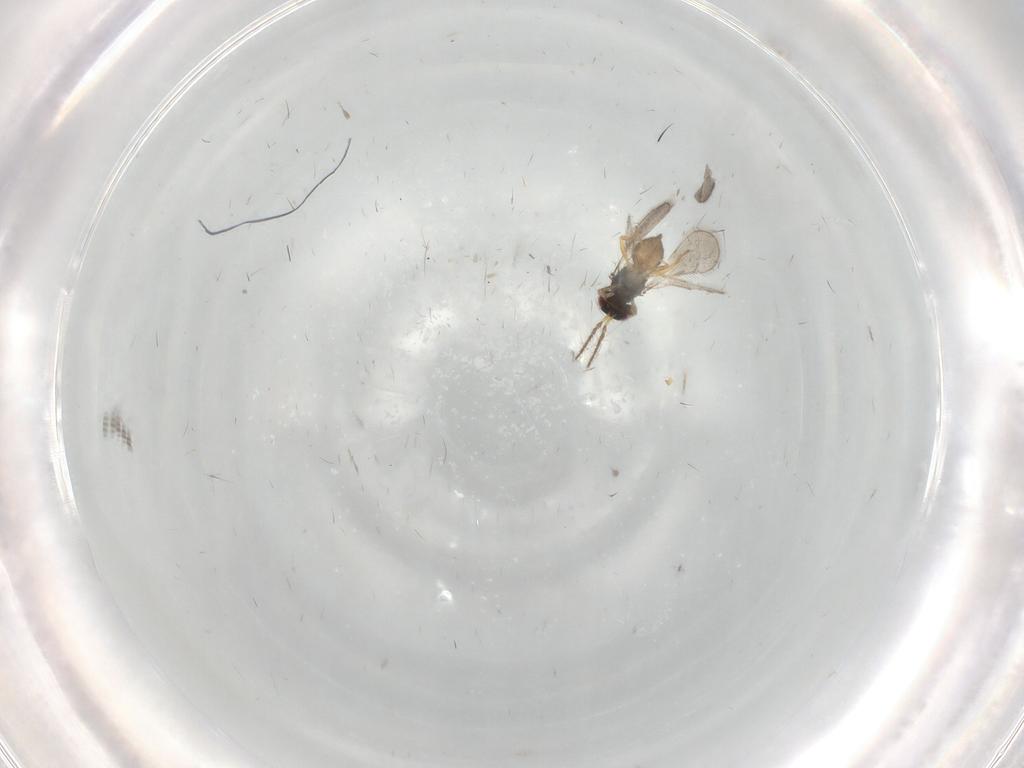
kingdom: Animalia
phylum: Arthropoda
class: Insecta
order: Hymenoptera
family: Eulophidae
